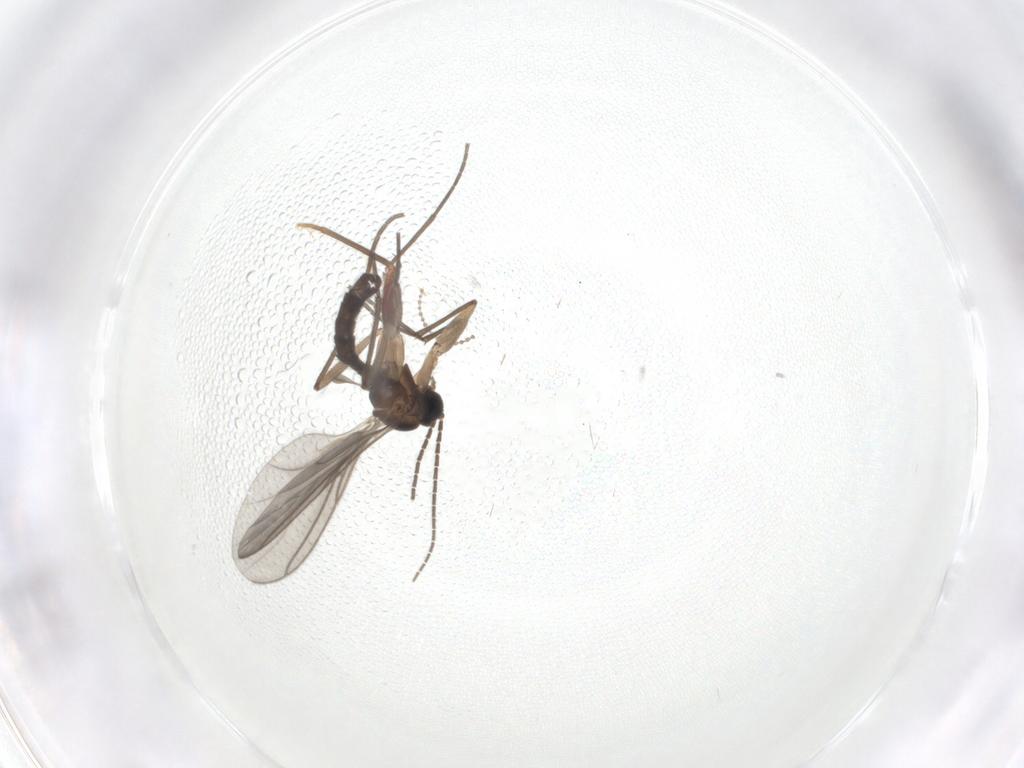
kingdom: Animalia
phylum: Arthropoda
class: Insecta
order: Diptera
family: Sciaridae
